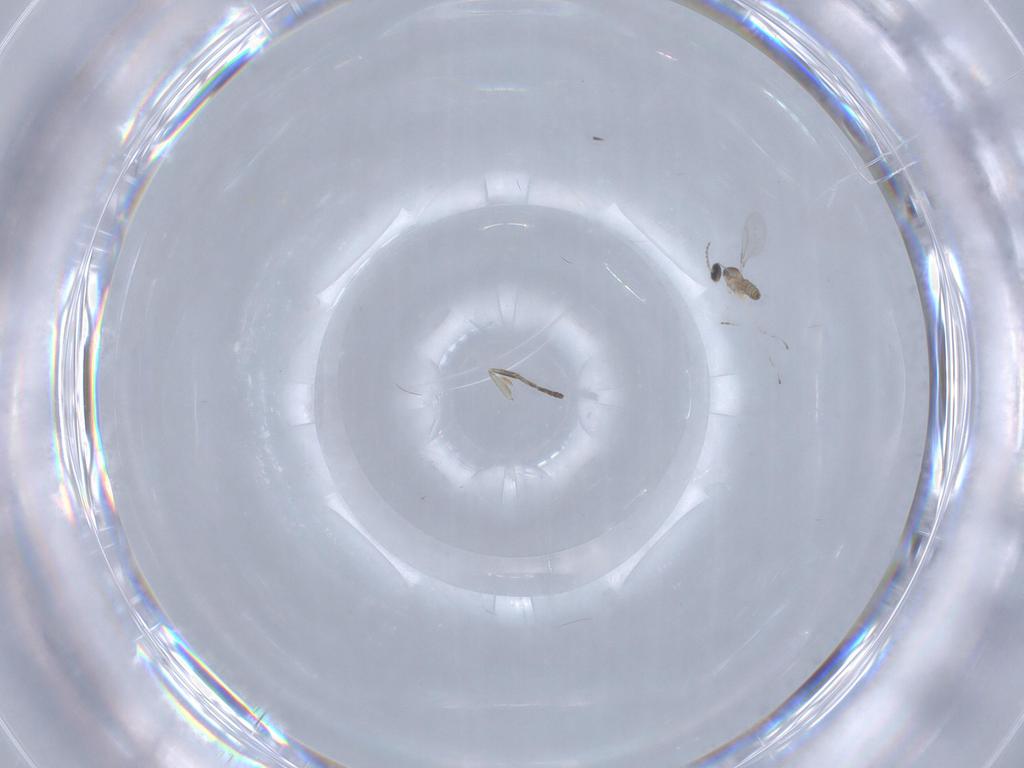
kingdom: Animalia
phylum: Arthropoda
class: Insecta
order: Diptera
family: Cecidomyiidae
